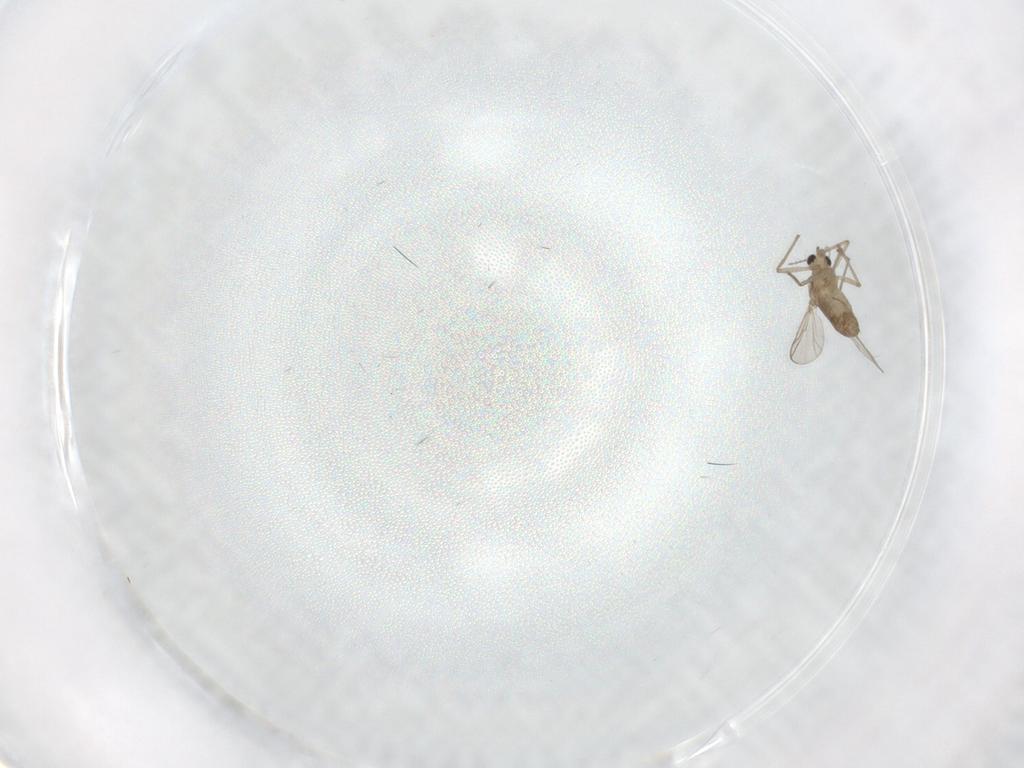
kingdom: Animalia
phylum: Arthropoda
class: Insecta
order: Diptera
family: Chironomidae
